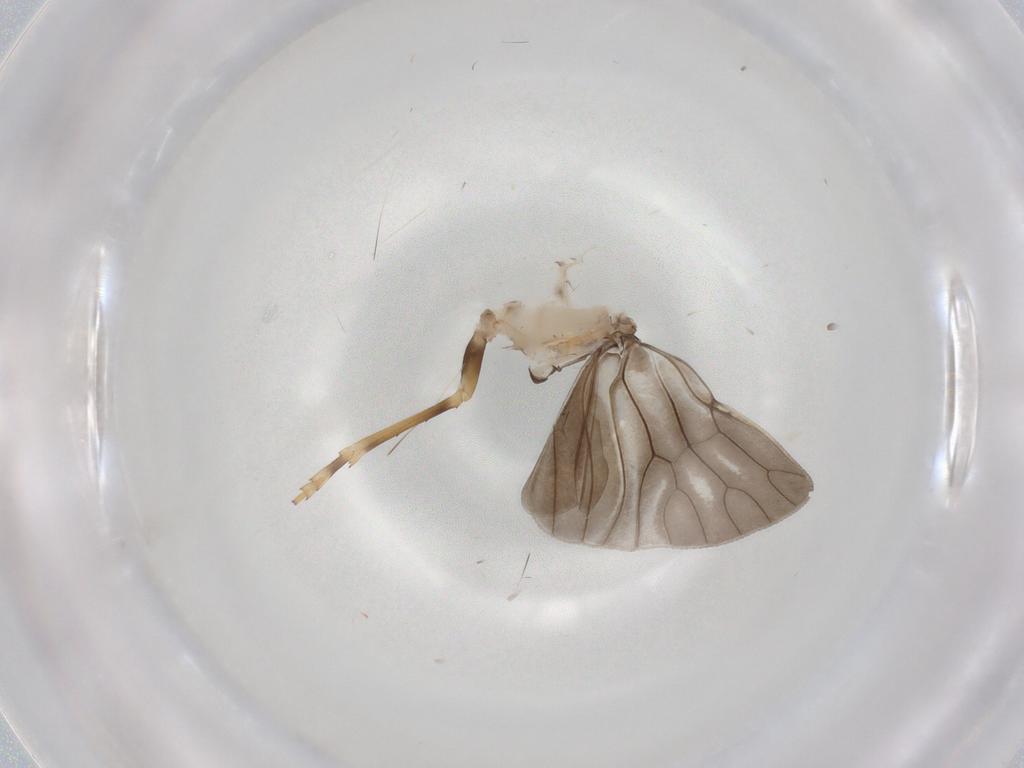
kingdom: Animalia
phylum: Arthropoda
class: Insecta
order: Hemiptera
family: Cixiidae
